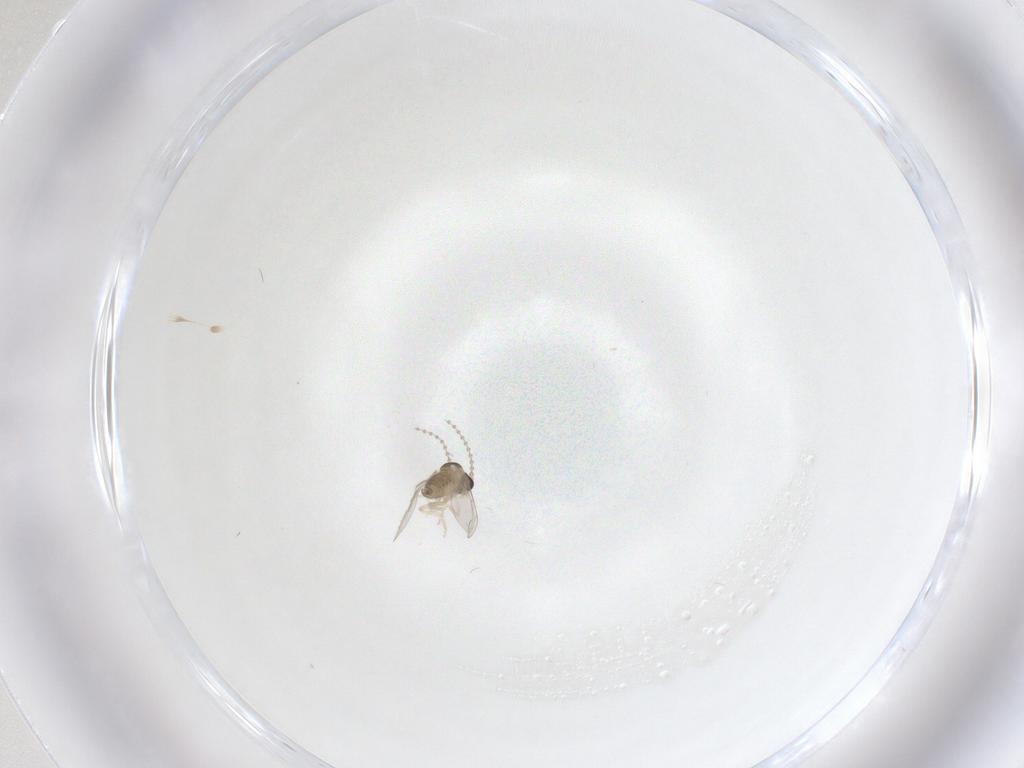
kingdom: Animalia
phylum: Arthropoda
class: Insecta
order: Diptera
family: Cecidomyiidae
